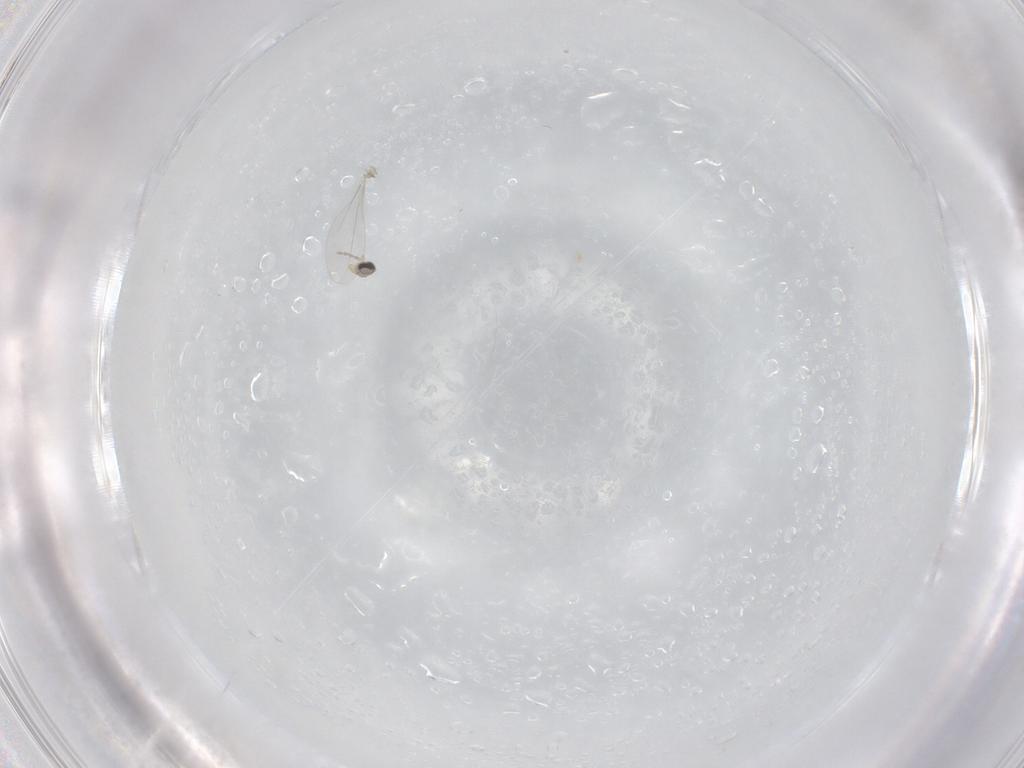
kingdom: Animalia
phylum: Arthropoda
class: Insecta
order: Diptera
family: Cecidomyiidae
